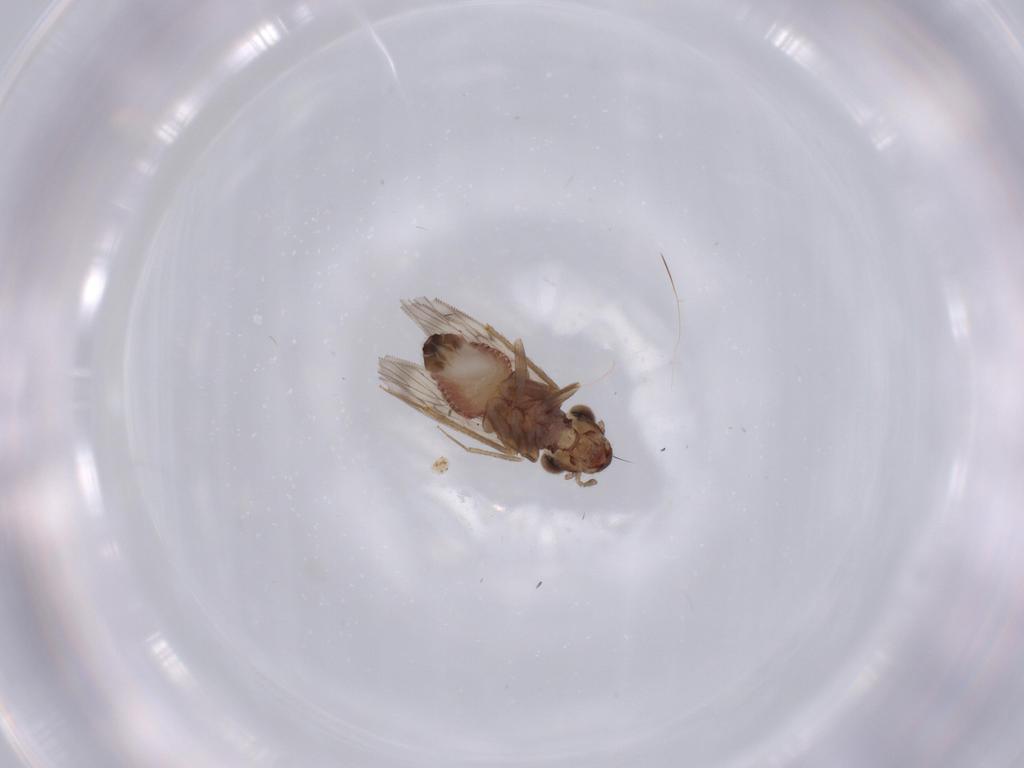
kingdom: Animalia
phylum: Arthropoda
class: Insecta
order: Psocodea
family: Lepidopsocidae
